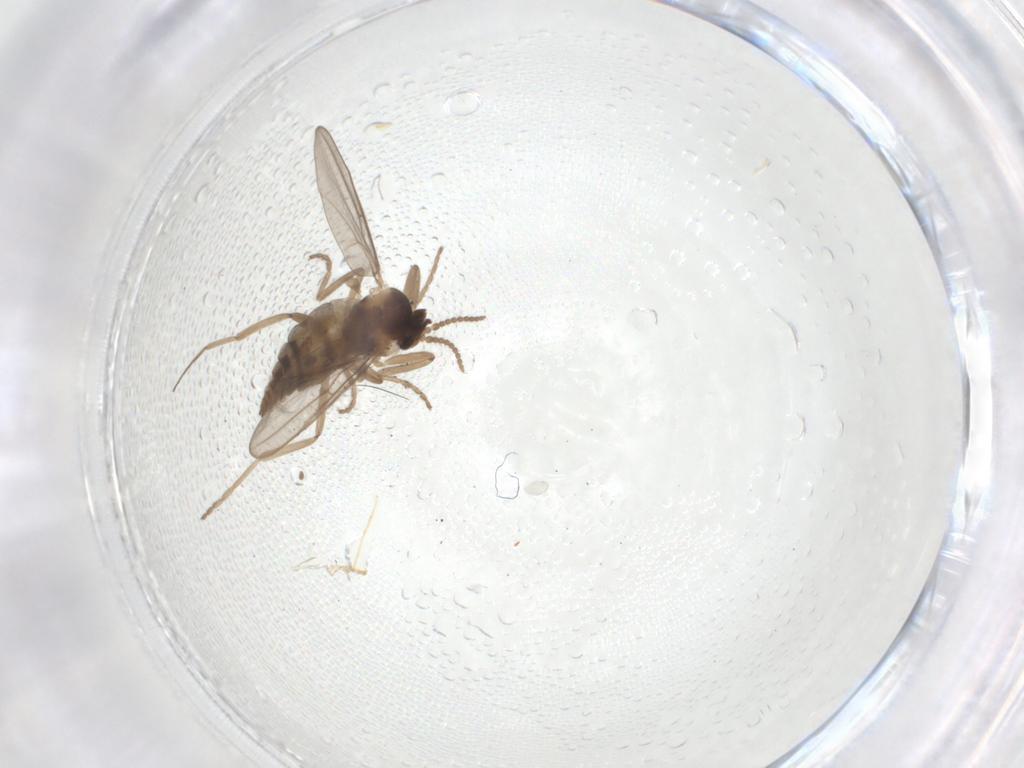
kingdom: Animalia
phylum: Arthropoda
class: Insecta
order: Diptera
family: Cecidomyiidae
